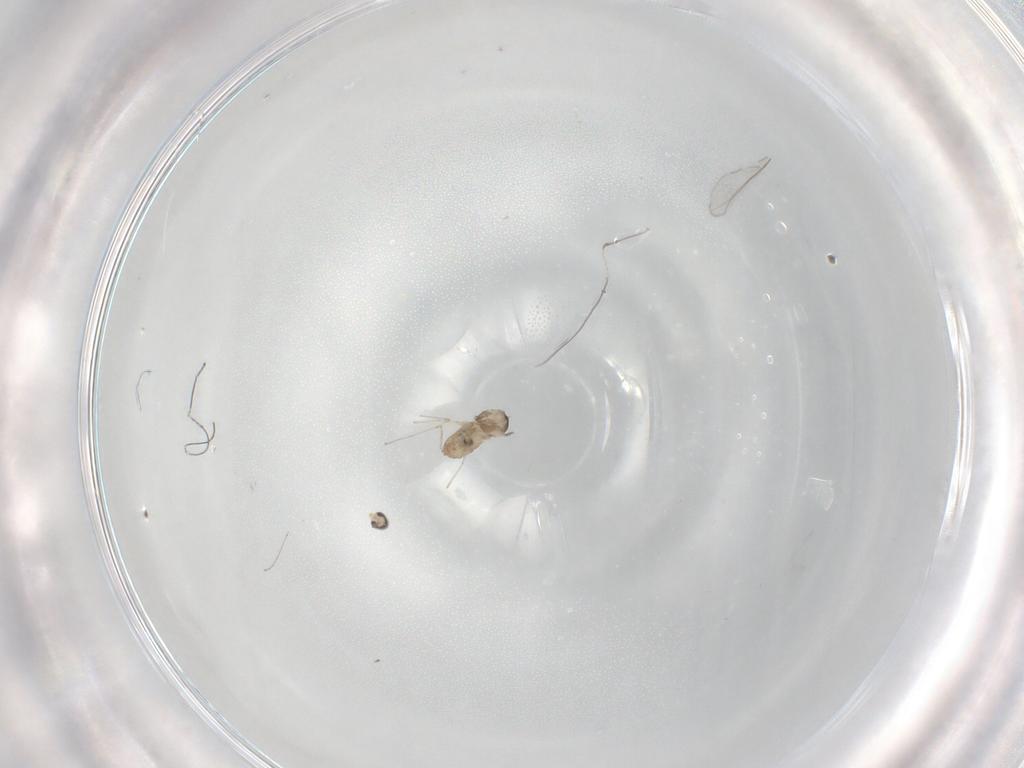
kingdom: Animalia
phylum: Arthropoda
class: Insecta
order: Diptera
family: Cecidomyiidae
